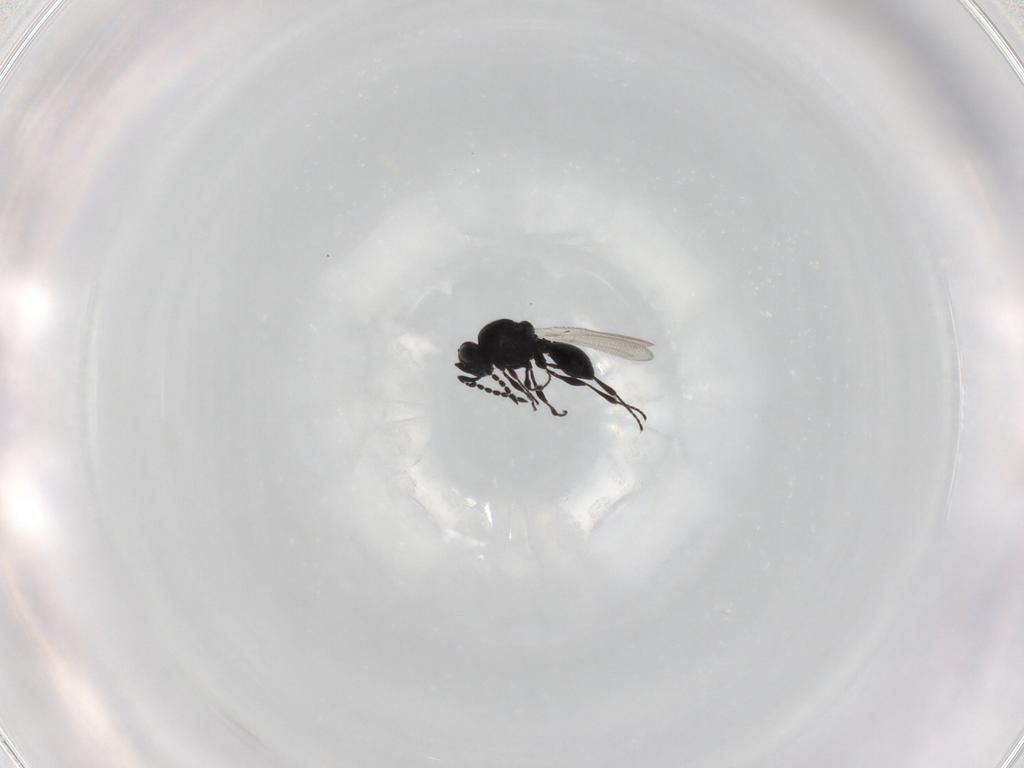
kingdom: Animalia
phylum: Arthropoda
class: Insecta
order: Hymenoptera
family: Platygastridae
